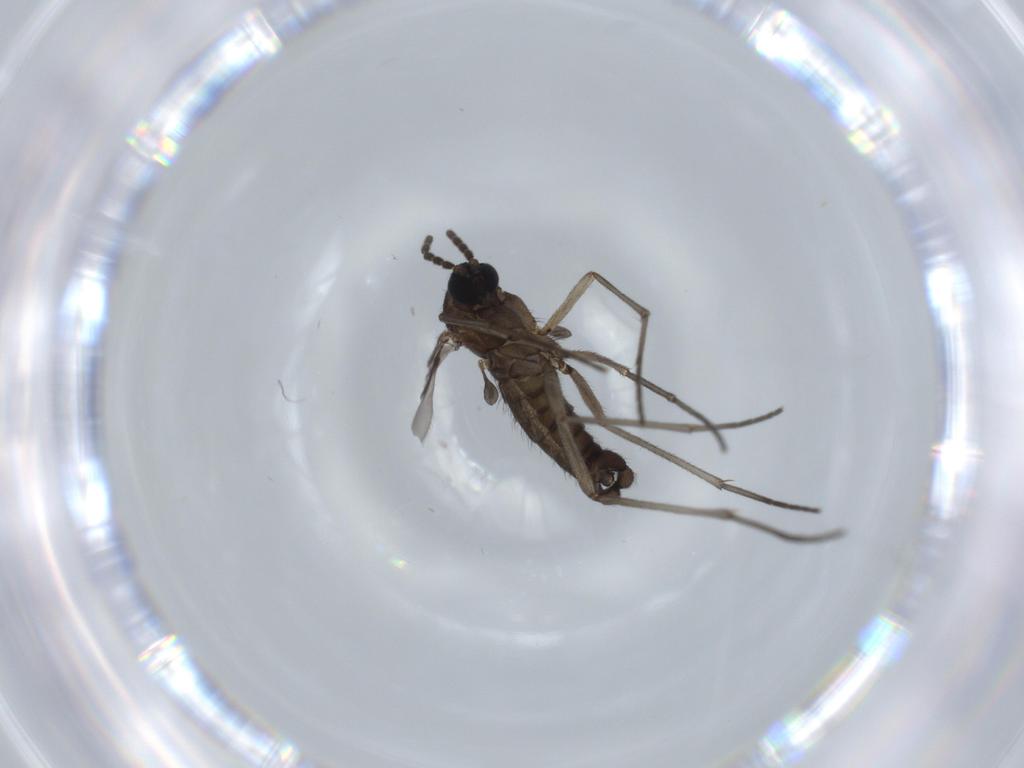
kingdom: Animalia
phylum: Arthropoda
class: Insecta
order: Diptera
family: Sciaridae
